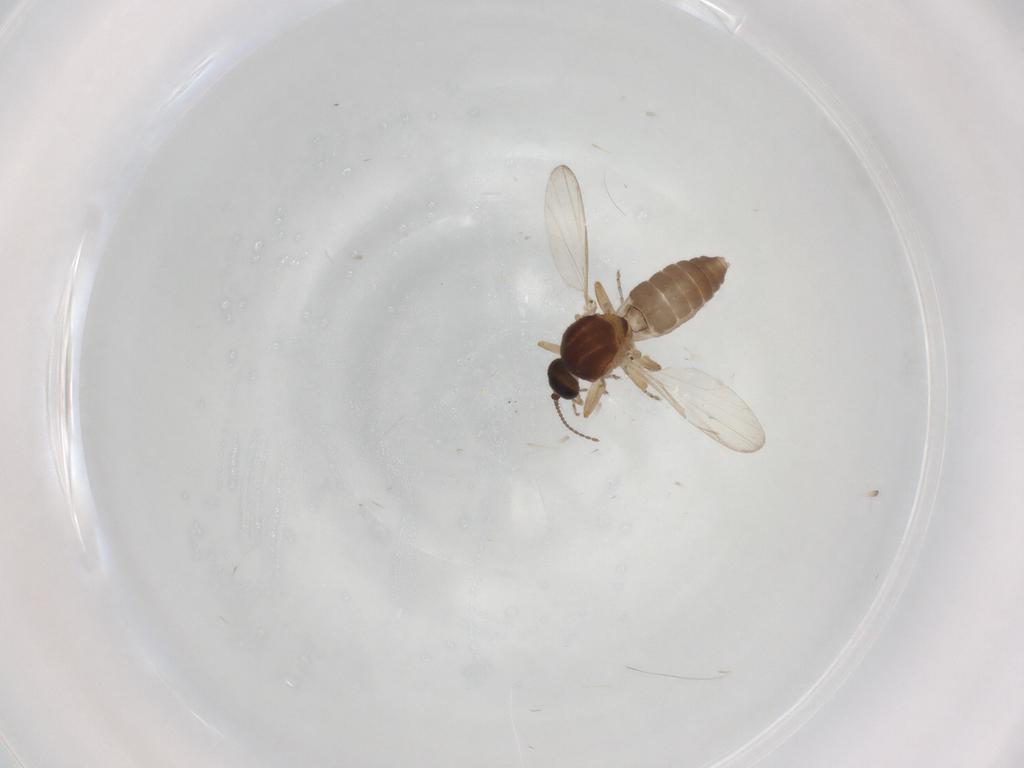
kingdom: Animalia
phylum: Arthropoda
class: Insecta
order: Diptera
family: Ceratopogonidae
